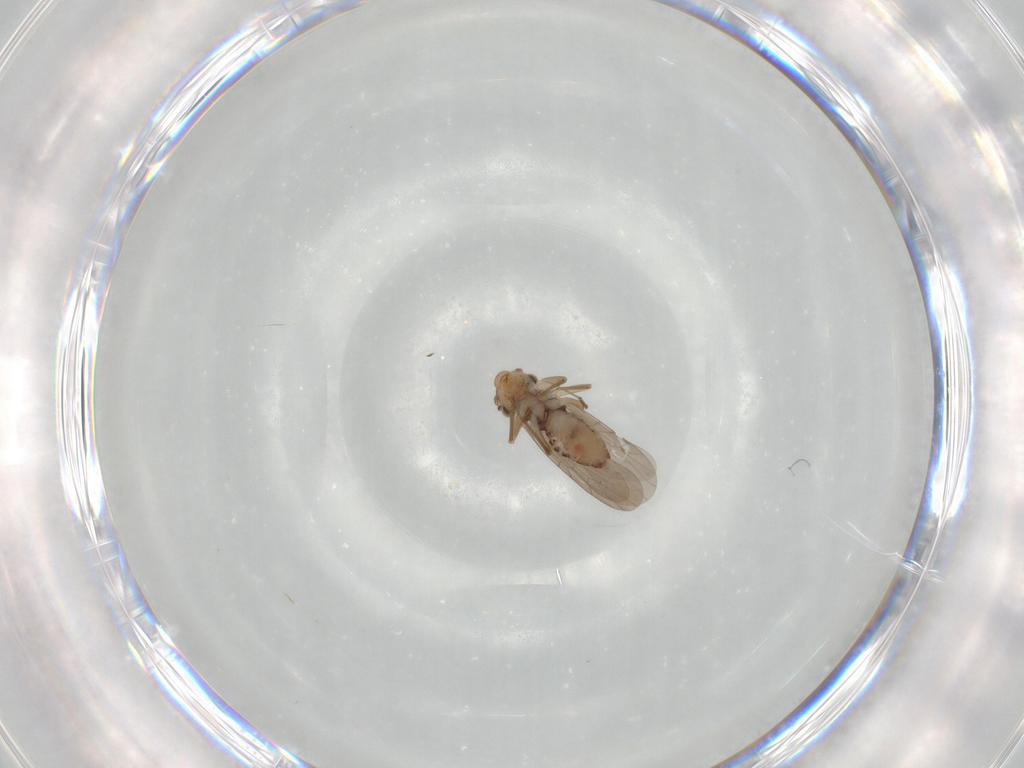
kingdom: Animalia
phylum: Arthropoda
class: Insecta
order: Psocodea
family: Lepidopsocidae
